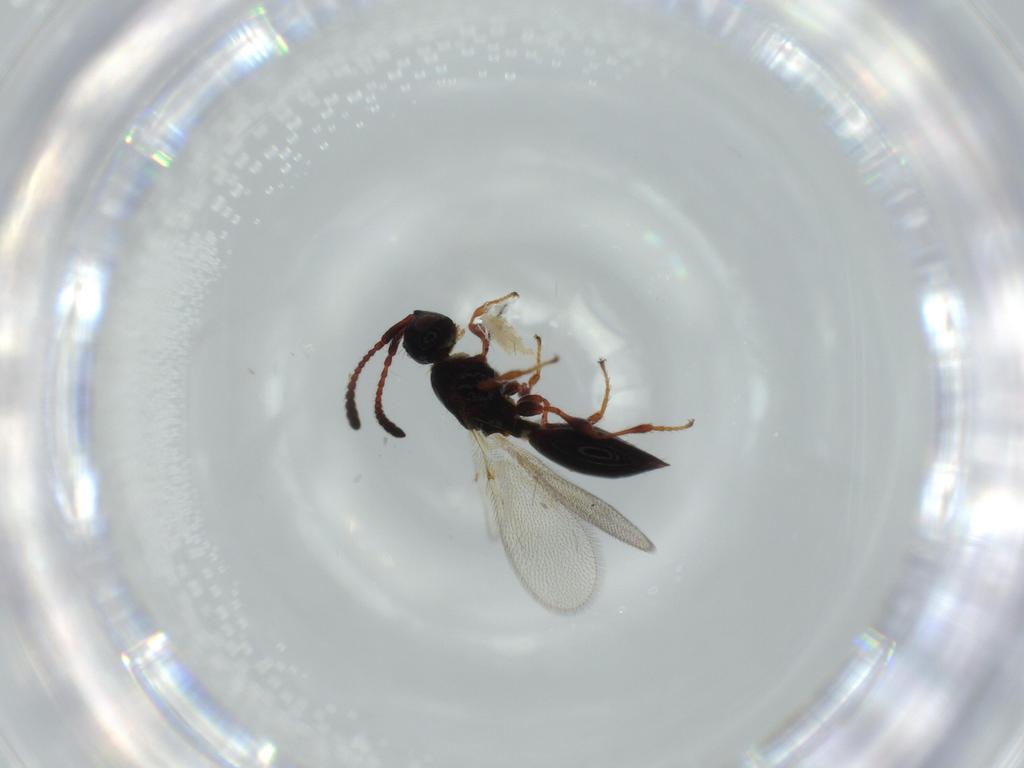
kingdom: Animalia
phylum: Arthropoda
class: Insecta
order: Hymenoptera
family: Diapriidae
